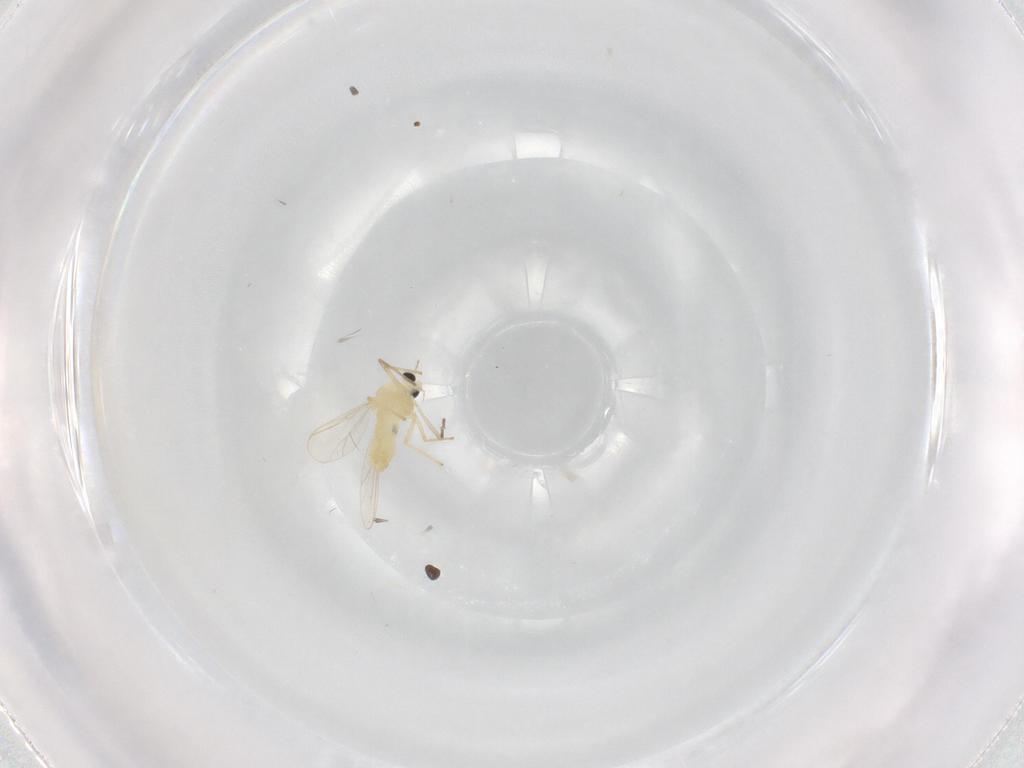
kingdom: Animalia
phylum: Arthropoda
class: Insecta
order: Diptera
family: Chironomidae
